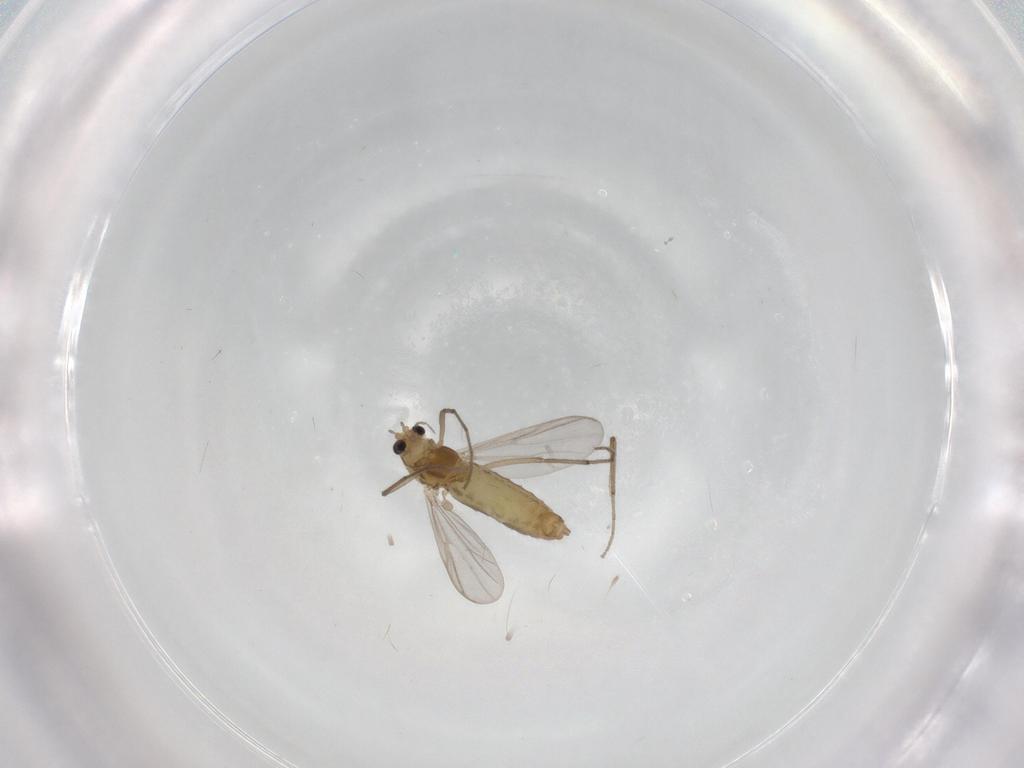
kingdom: Animalia
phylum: Arthropoda
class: Insecta
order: Diptera
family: Chironomidae
